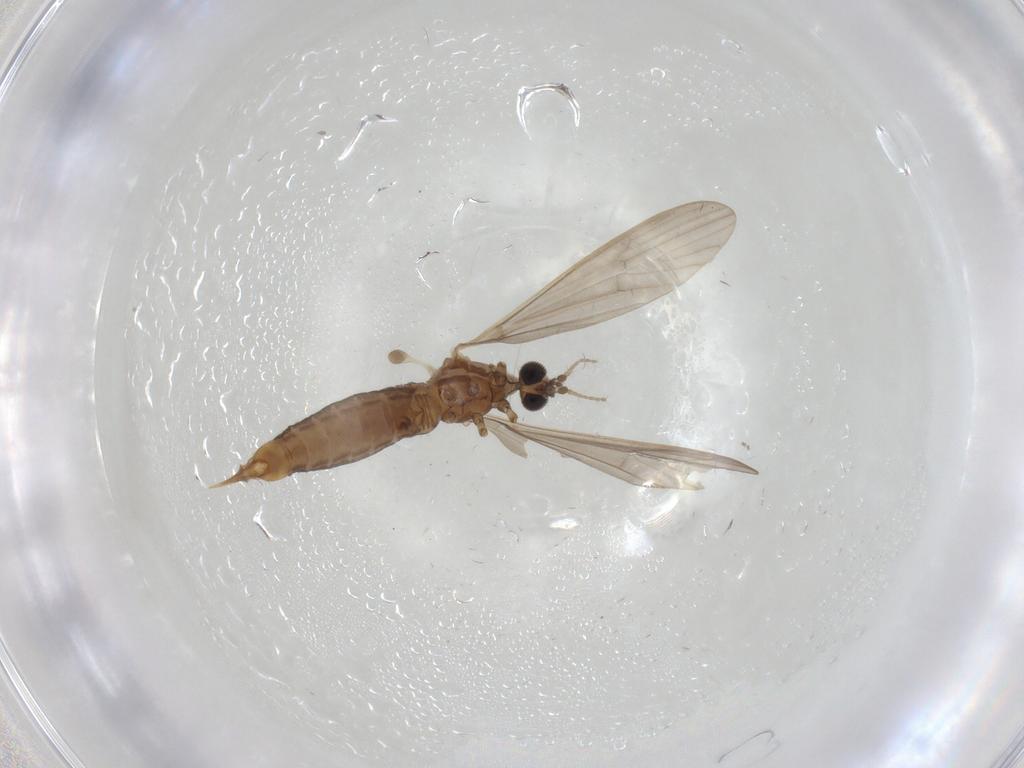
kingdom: Animalia
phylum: Arthropoda
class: Insecta
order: Diptera
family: Limoniidae
